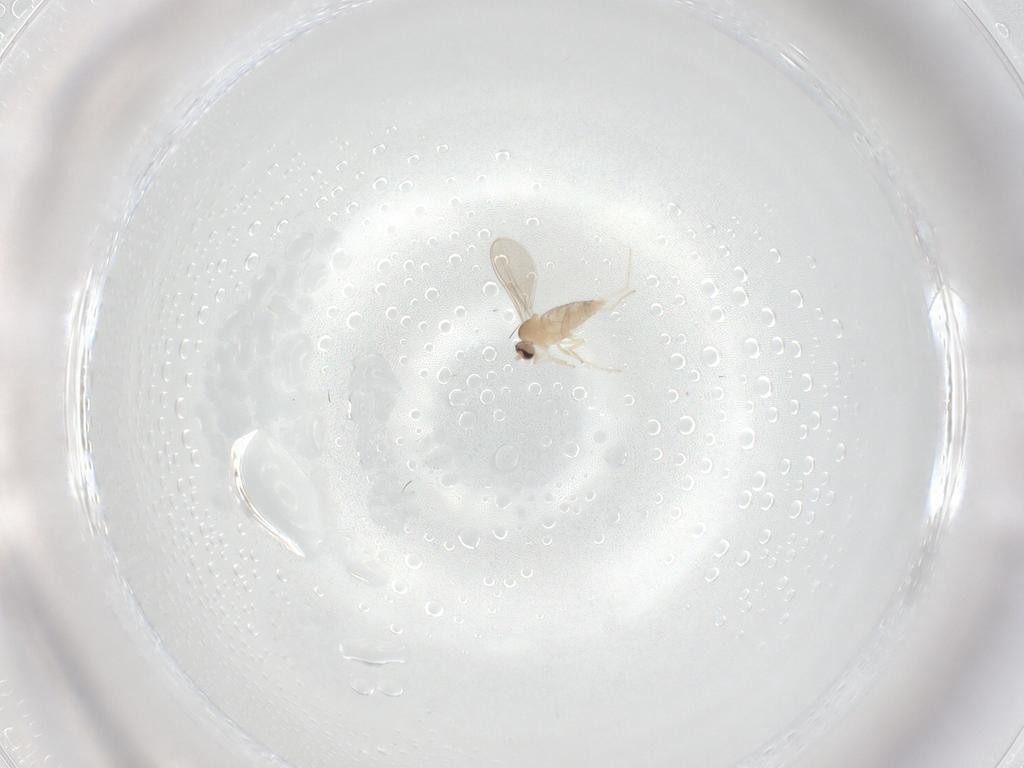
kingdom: Animalia
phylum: Arthropoda
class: Insecta
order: Diptera
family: Cecidomyiidae
